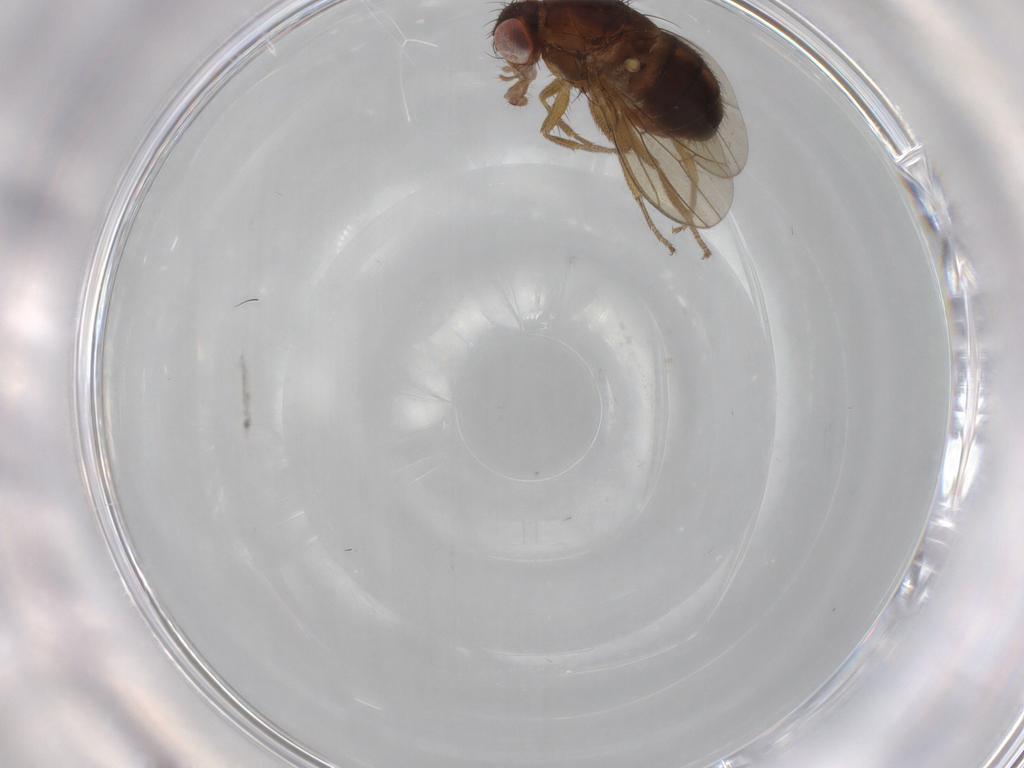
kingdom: Animalia
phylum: Arthropoda
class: Insecta
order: Diptera
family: Drosophilidae
